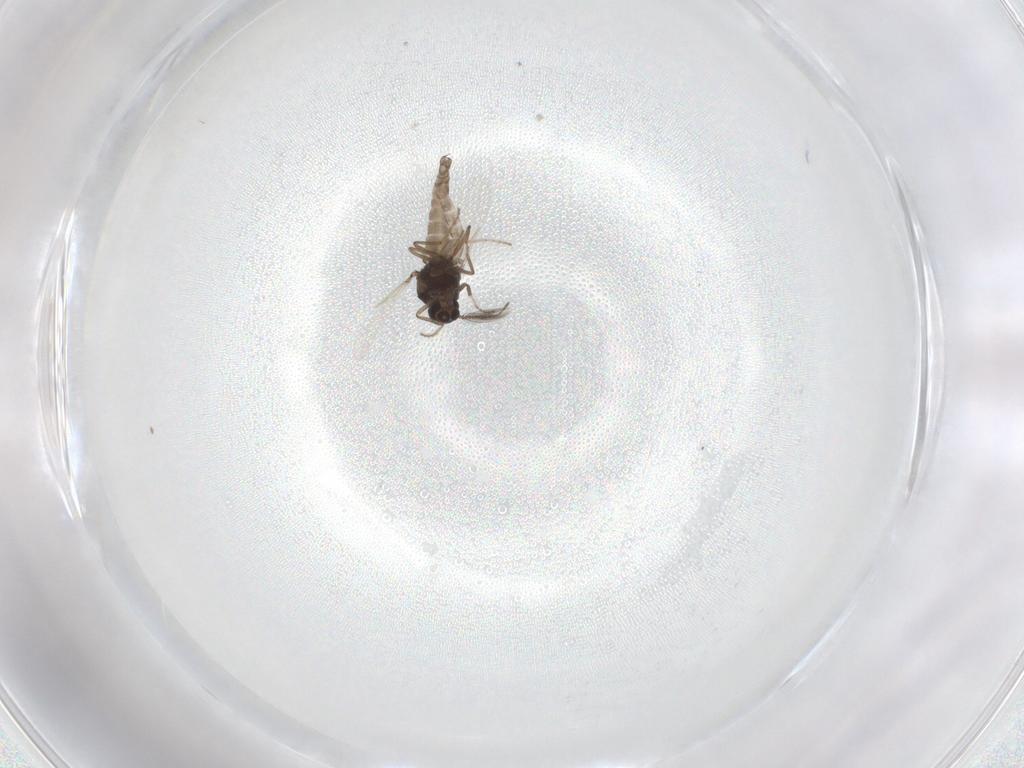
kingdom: Animalia
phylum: Arthropoda
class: Insecta
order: Diptera
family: Ceratopogonidae
